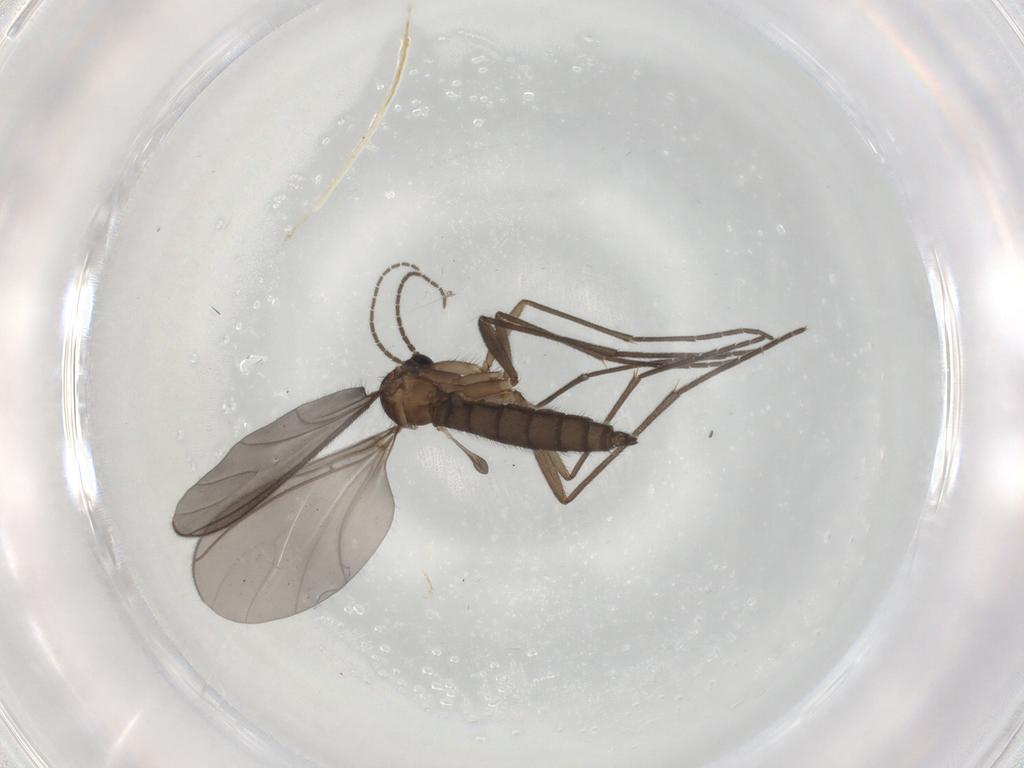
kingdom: Animalia
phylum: Arthropoda
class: Insecta
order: Diptera
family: Sciaridae
